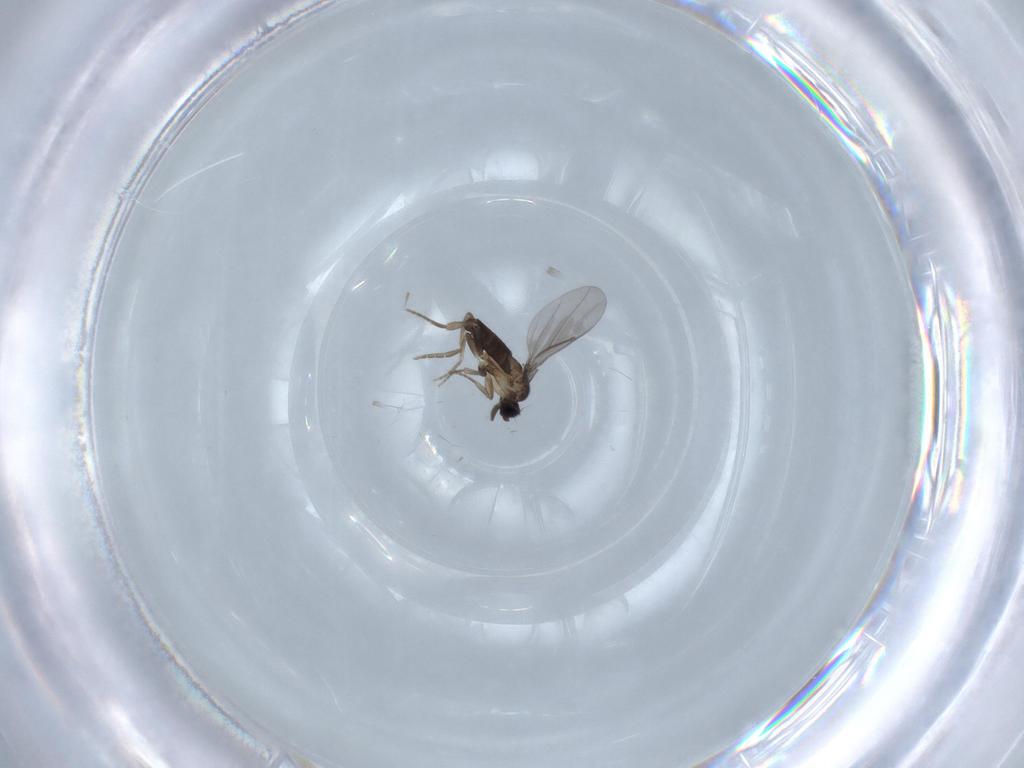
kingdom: Animalia
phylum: Arthropoda
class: Insecta
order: Diptera
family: Dolichopodidae
